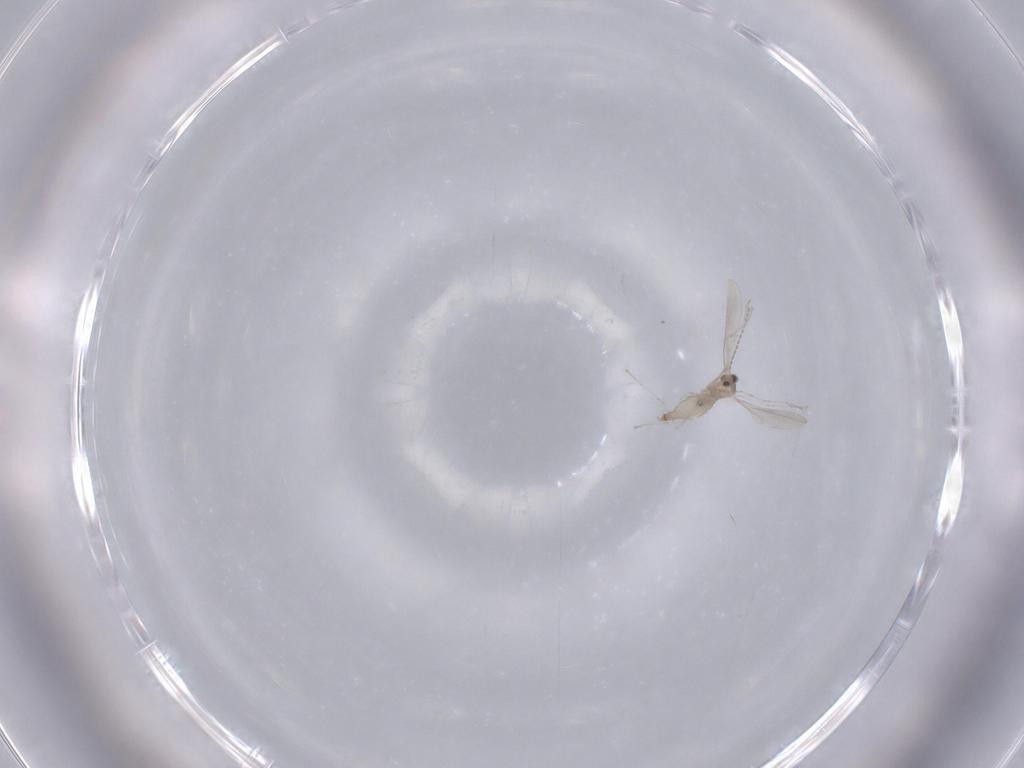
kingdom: Animalia
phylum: Arthropoda
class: Insecta
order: Diptera
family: Cecidomyiidae
